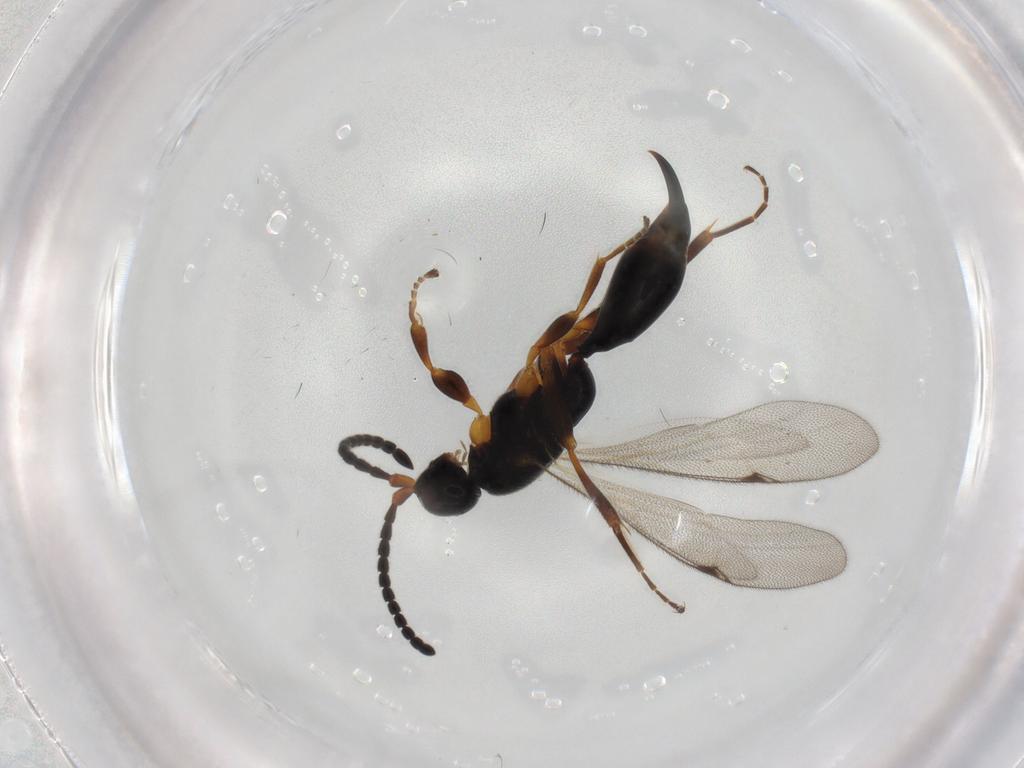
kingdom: Animalia
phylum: Arthropoda
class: Insecta
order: Hymenoptera
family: Proctotrupidae
